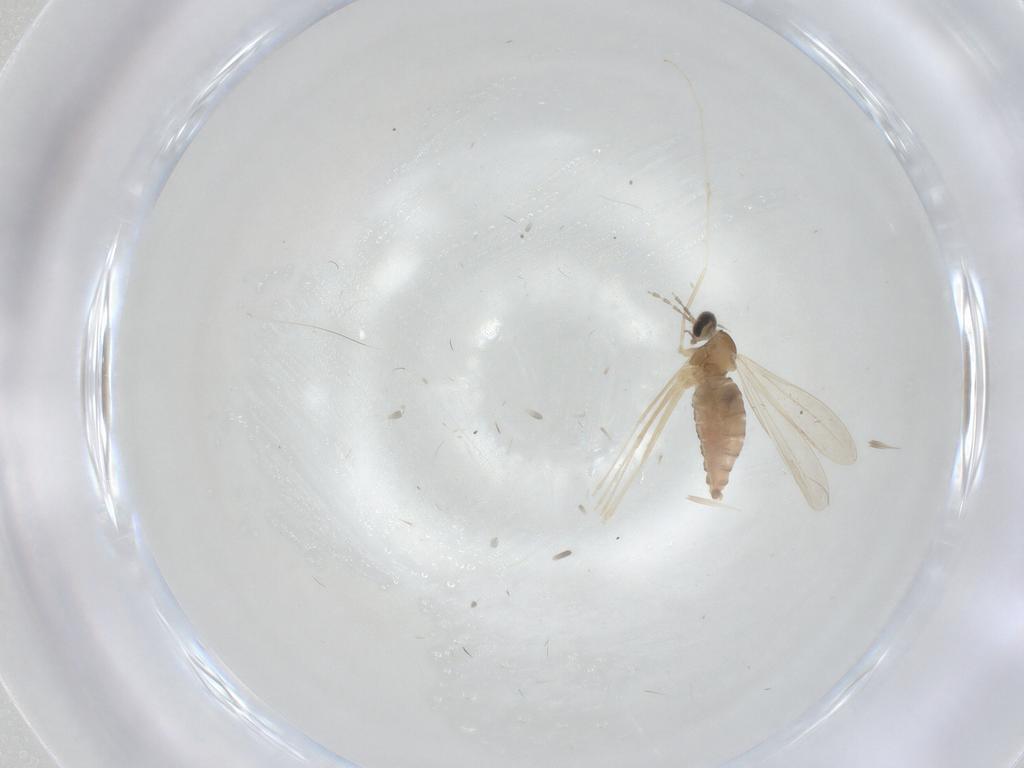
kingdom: Animalia
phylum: Arthropoda
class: Insecta
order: Diptera
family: Cecidomyiidae
